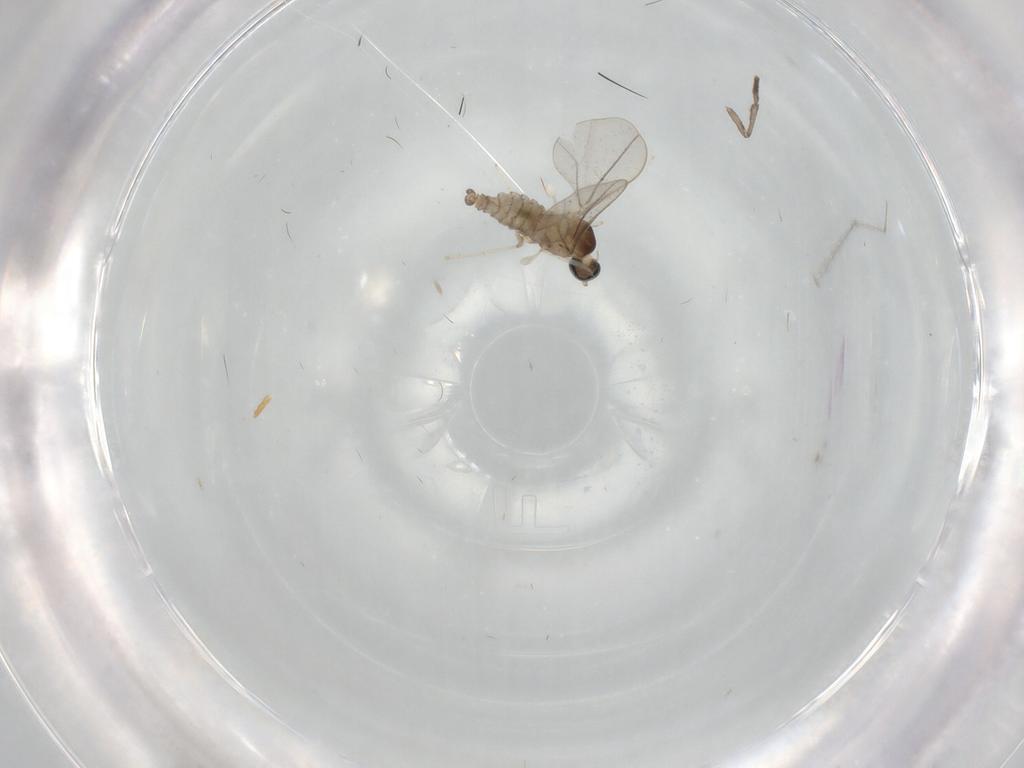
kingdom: Animalia
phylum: Arthropoda
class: Insecta
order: Diptera
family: Cecidomyiidae
